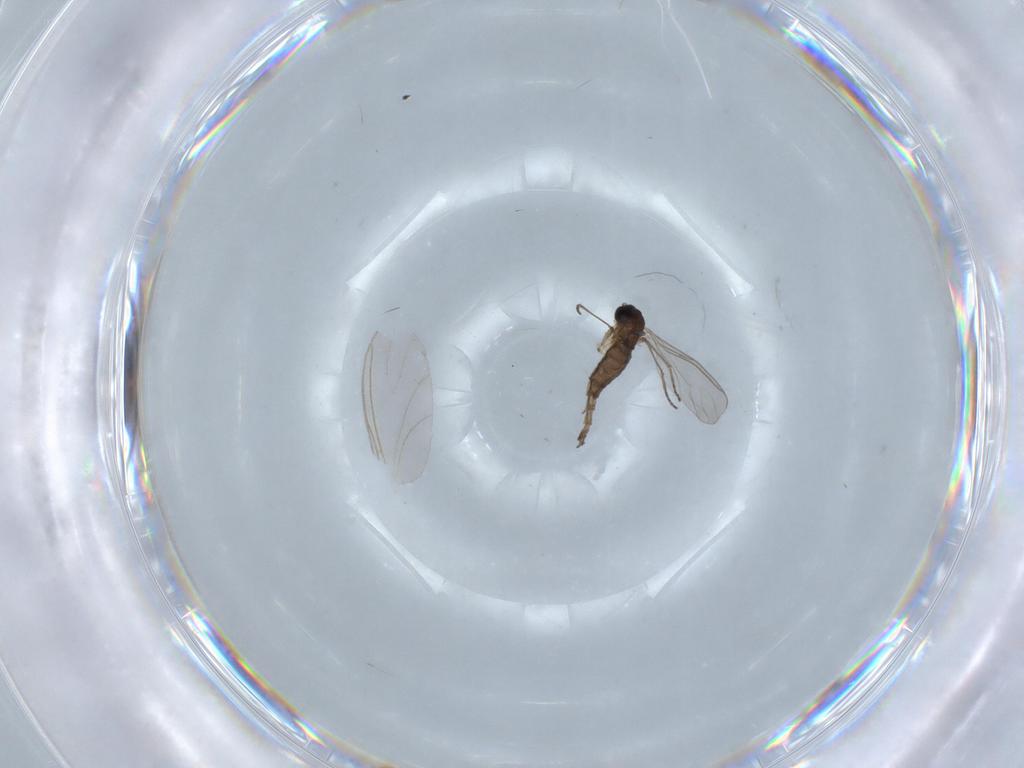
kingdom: Animalia
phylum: Arthropoda
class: Insecta
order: Diptera
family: Sciaridae
